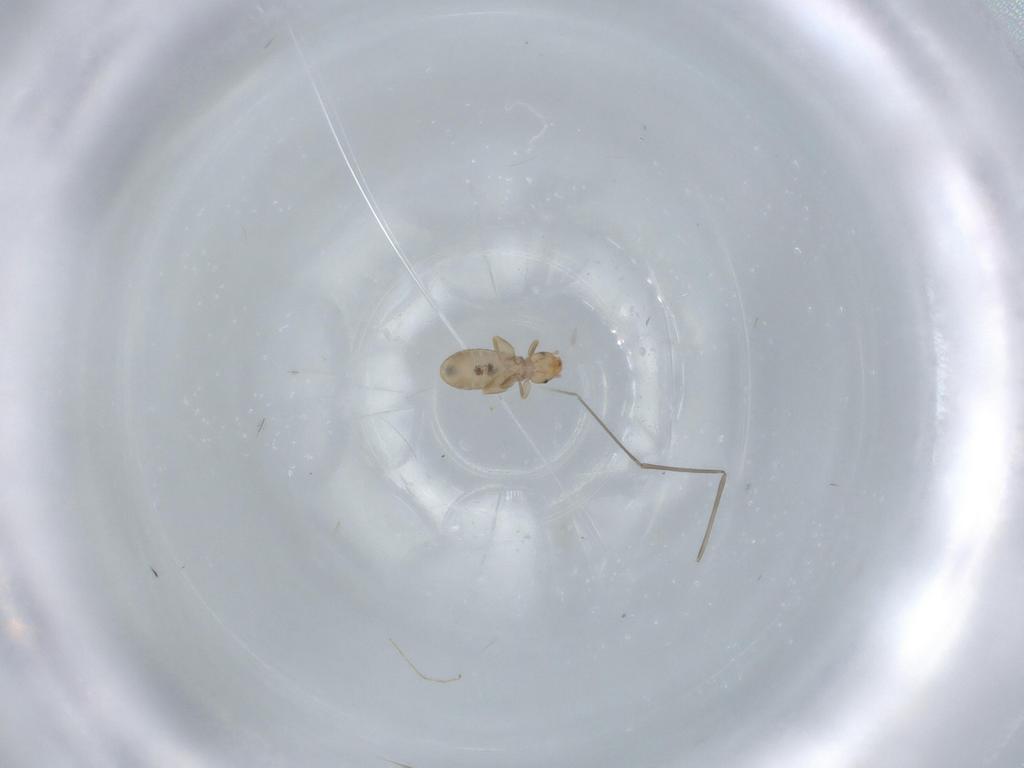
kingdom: Animalia
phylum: Arthropoda
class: Insecta
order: Psocodea
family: Liposcelididae
